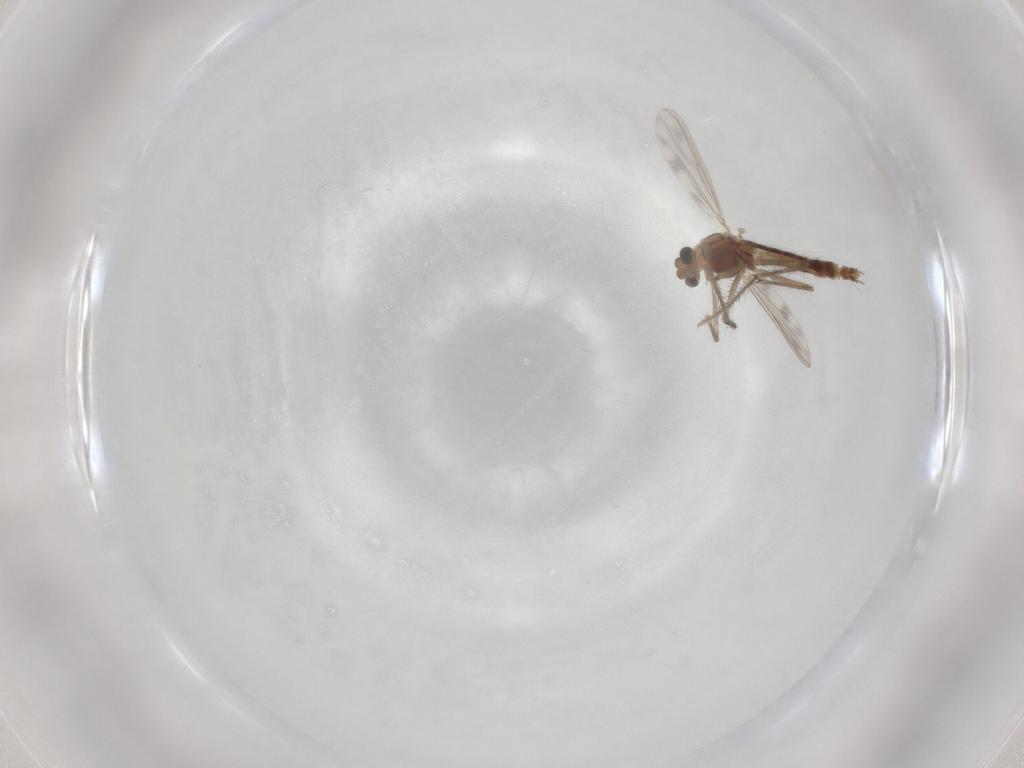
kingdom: Animalia
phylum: Arthropoda
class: Insecta
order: Diptera
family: Chironomidae
